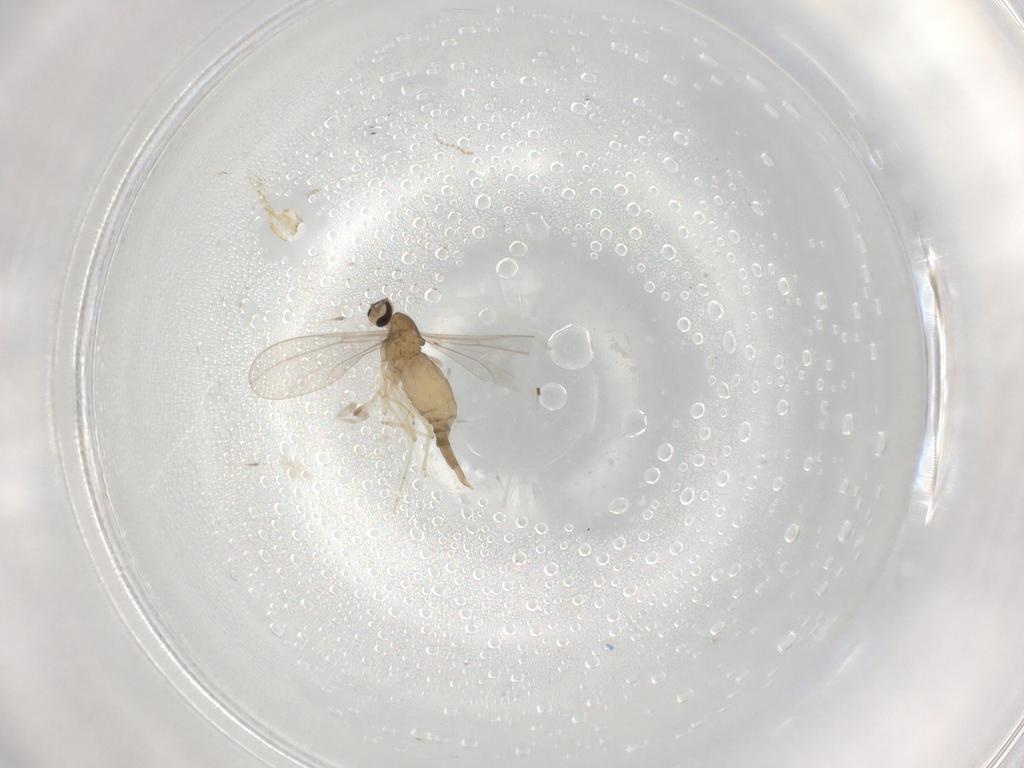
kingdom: Animalia
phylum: Arthropoda
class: Insecta
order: Diptera
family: Cecidomyiidae
